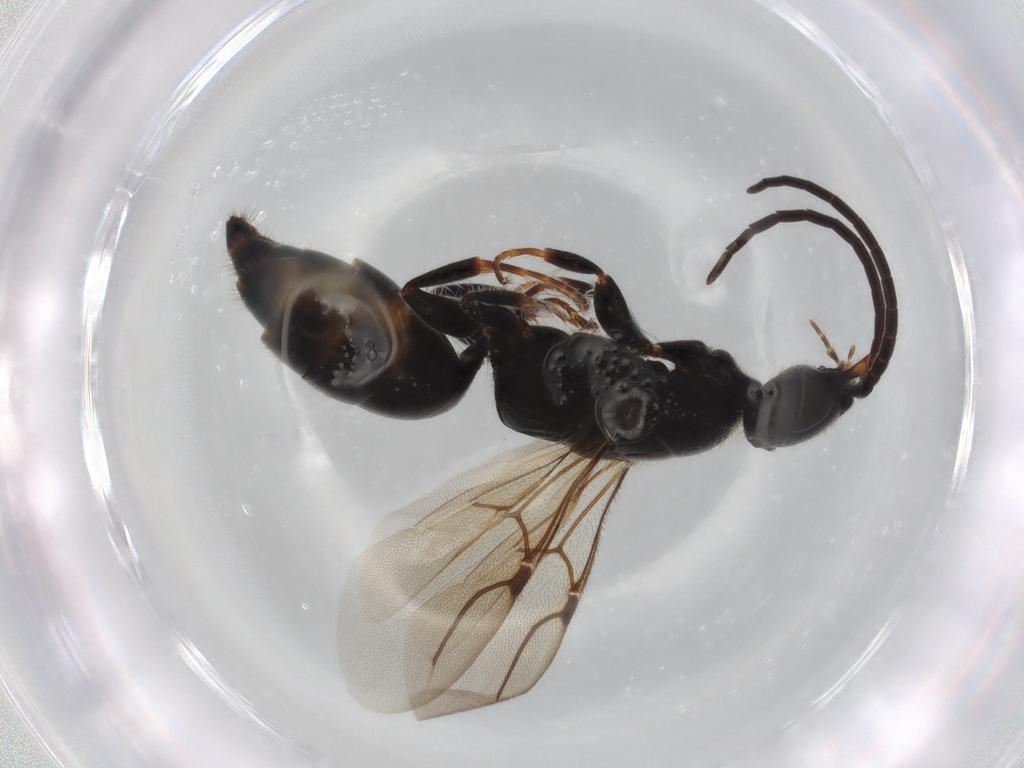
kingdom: Animalia
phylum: Arthropoda
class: Insecta
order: Hymenoptera
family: Bethylidae
